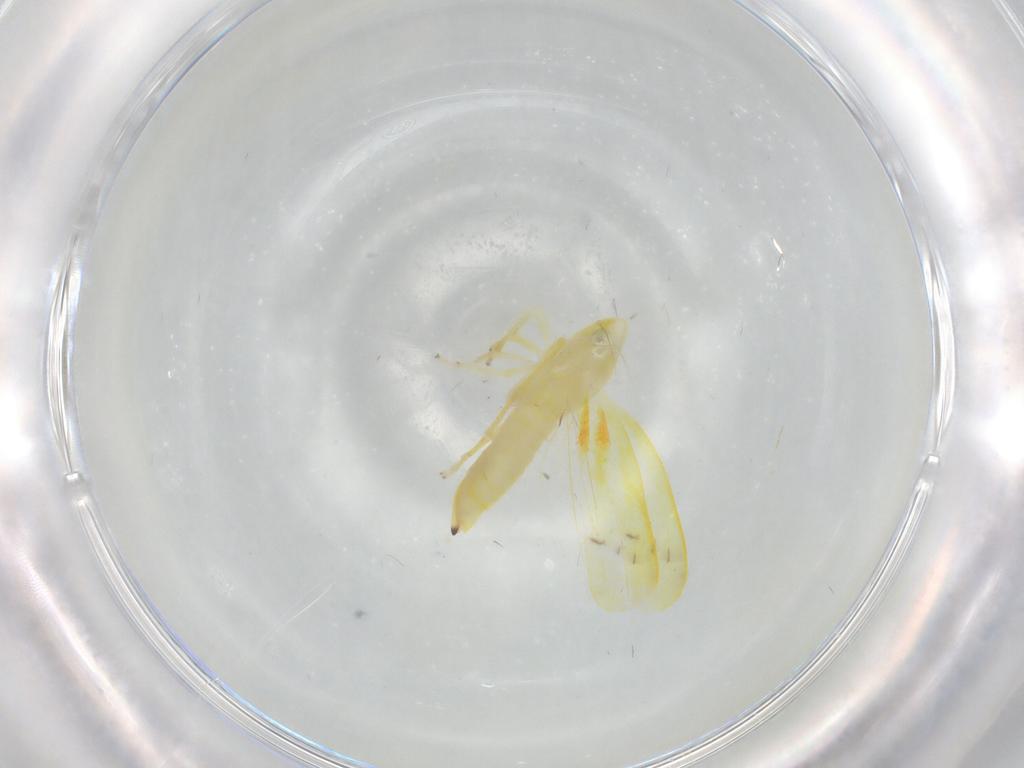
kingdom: Animalia
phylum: Arthropoda
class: Insecta
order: Hemiptera
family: Cicadellidae
